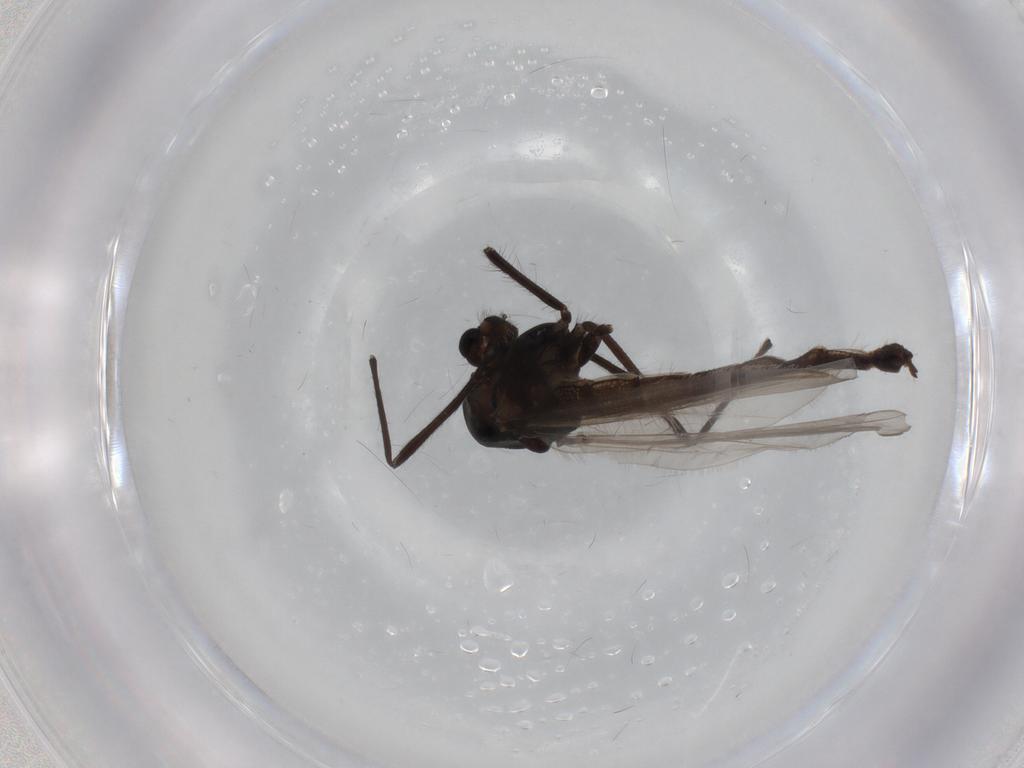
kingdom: Animalia
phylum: Arthropoda
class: Insecta
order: Diptera
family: Chironomidae
